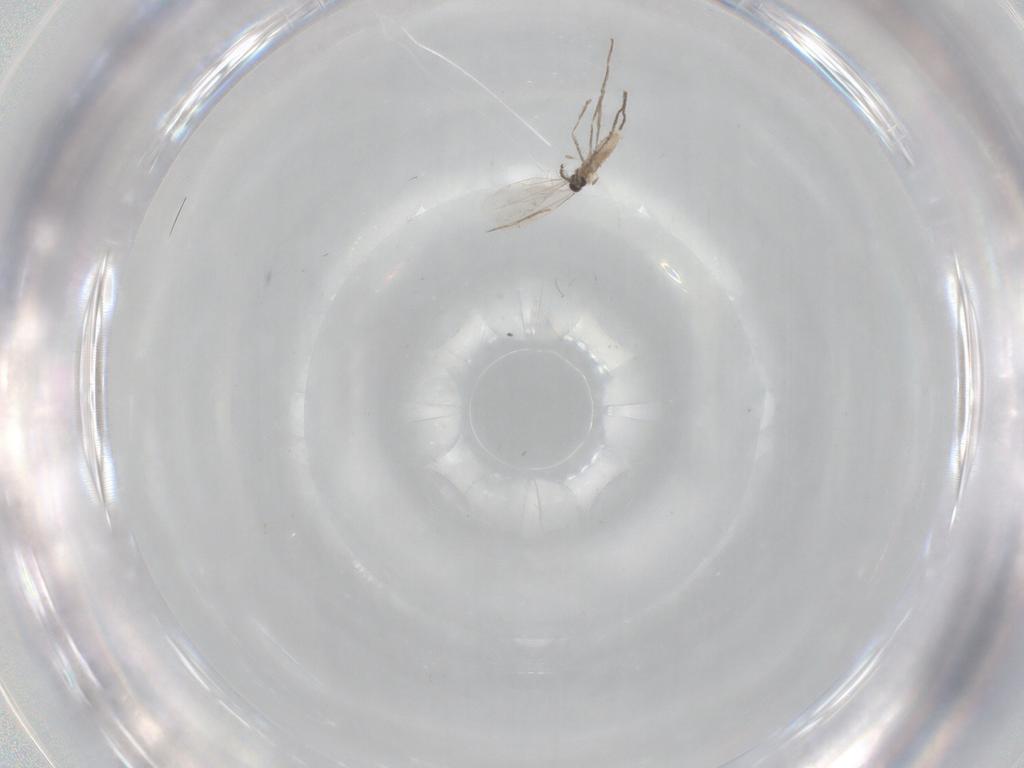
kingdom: Animalia
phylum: Arthropoda
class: Insecta
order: Diptera
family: Cecidomyiidae
